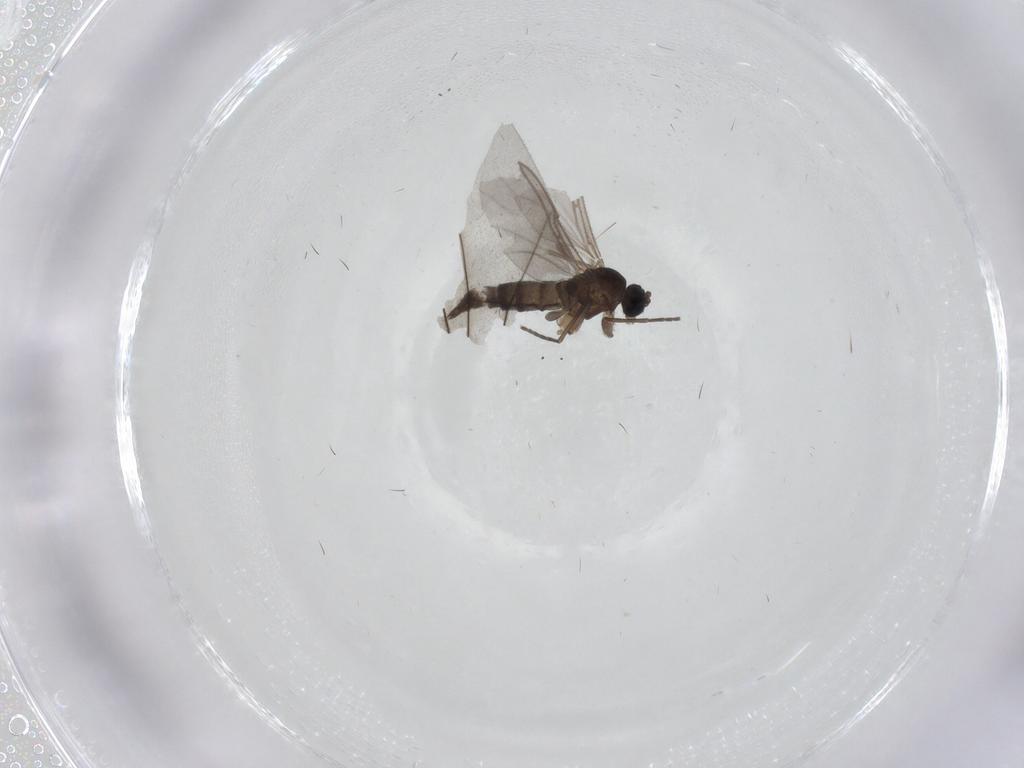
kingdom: Animalia
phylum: Arthropoda
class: Insecta
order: Diptera
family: Sciaridae
